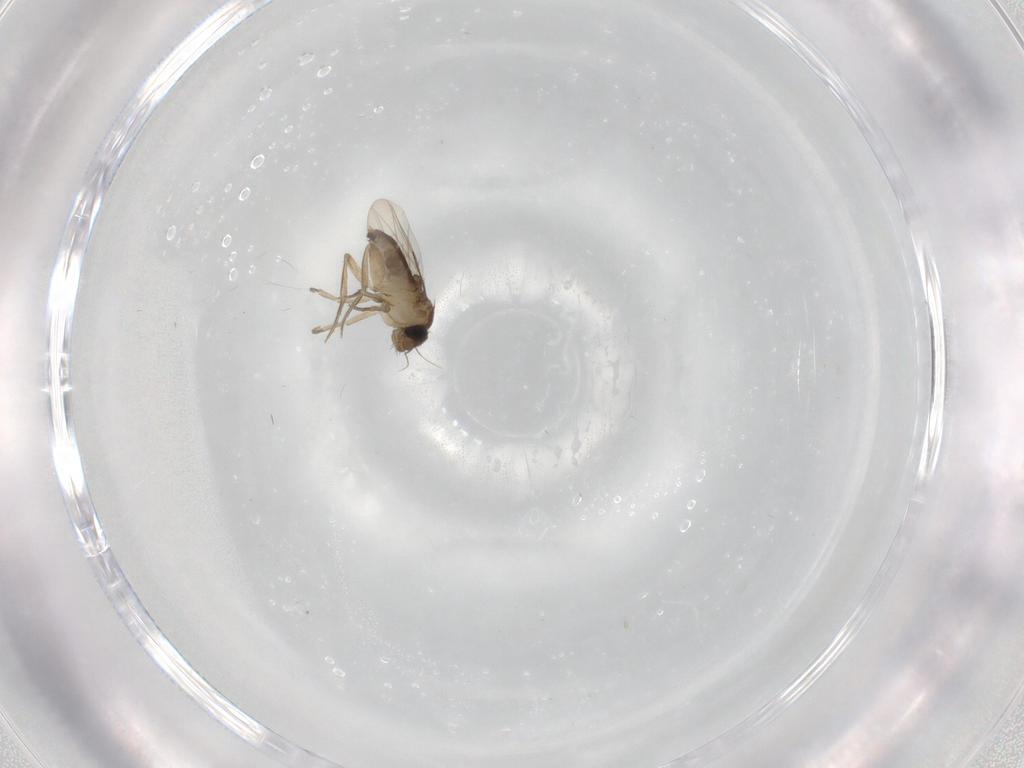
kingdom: Animalia
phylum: Arthropoda
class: Insecta
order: Diptera
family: Phoridae
